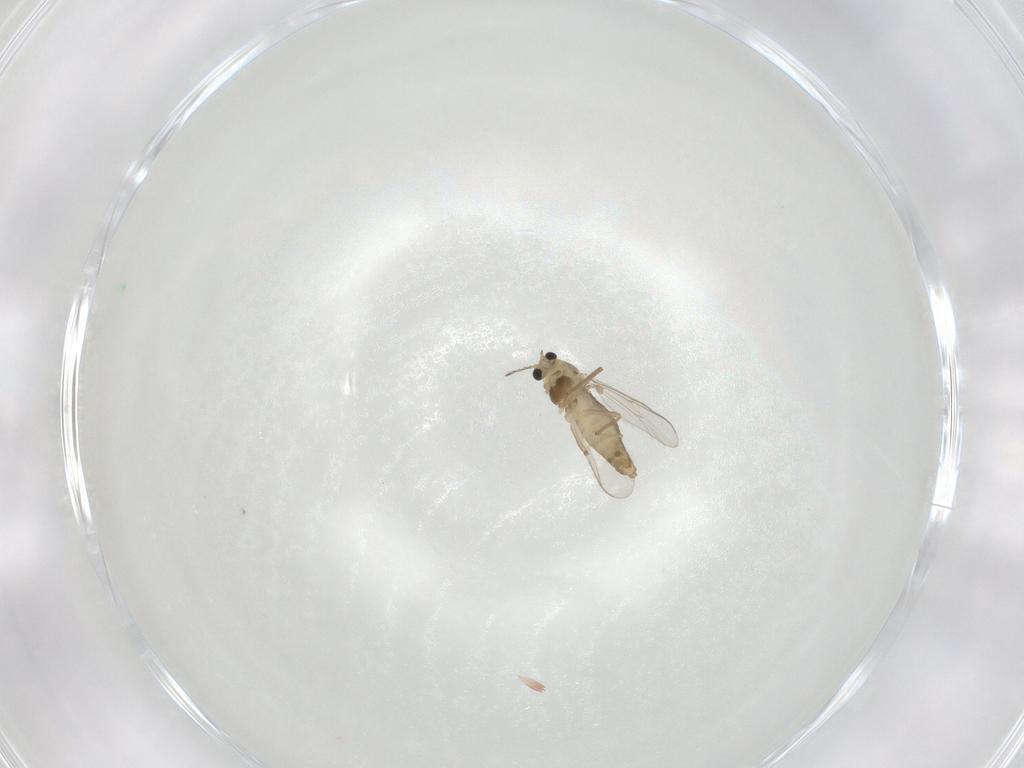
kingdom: Animalia
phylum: Arthropoda
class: Insecta
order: Diptera
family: Chironomidae
